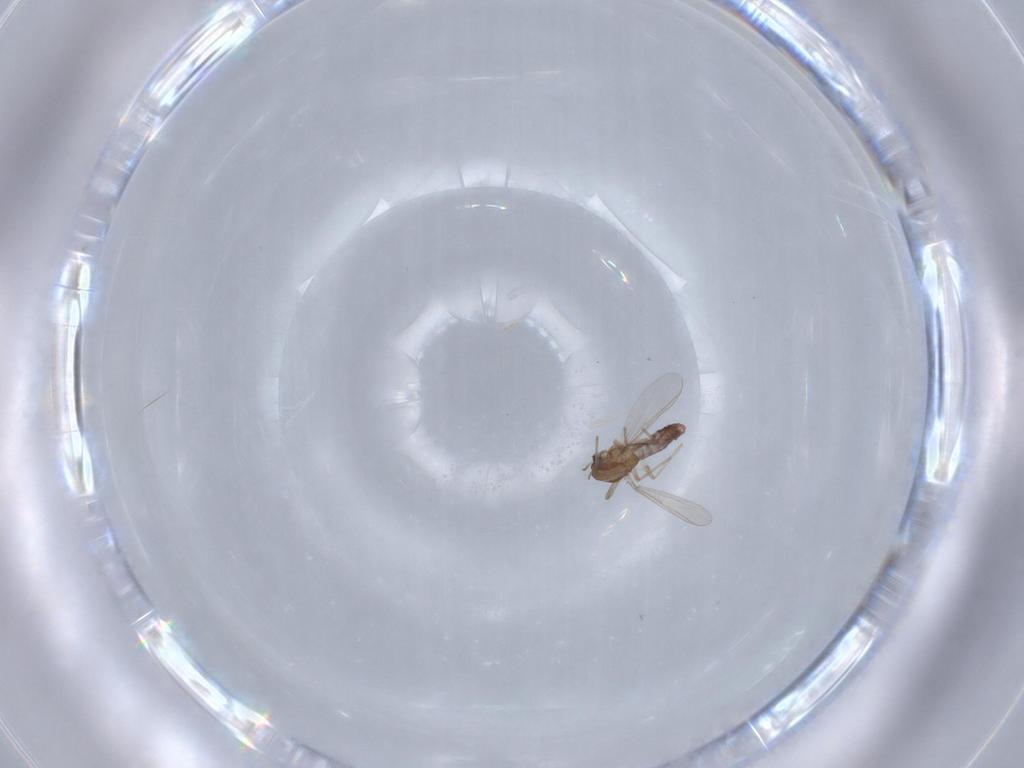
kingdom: Animalia
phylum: Arthropoda
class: Insecta
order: Diptera
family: Chironomidae
